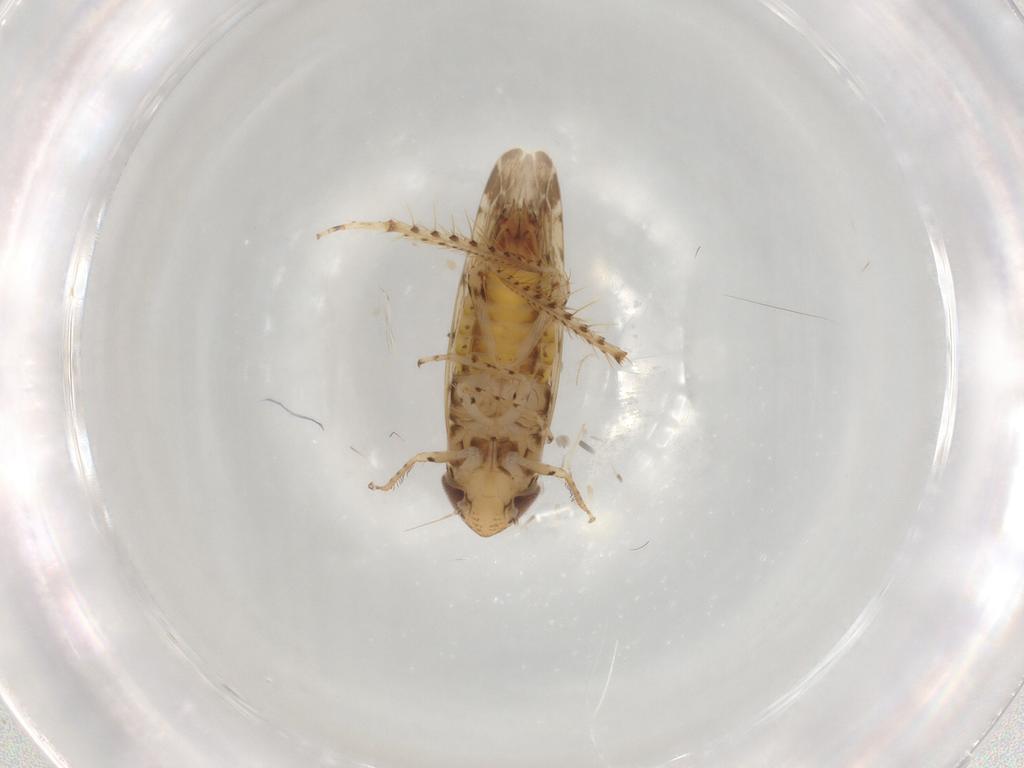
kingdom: Animalia
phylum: Arthropoda
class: Insecta
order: Hemiptera
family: Cicadellidae
